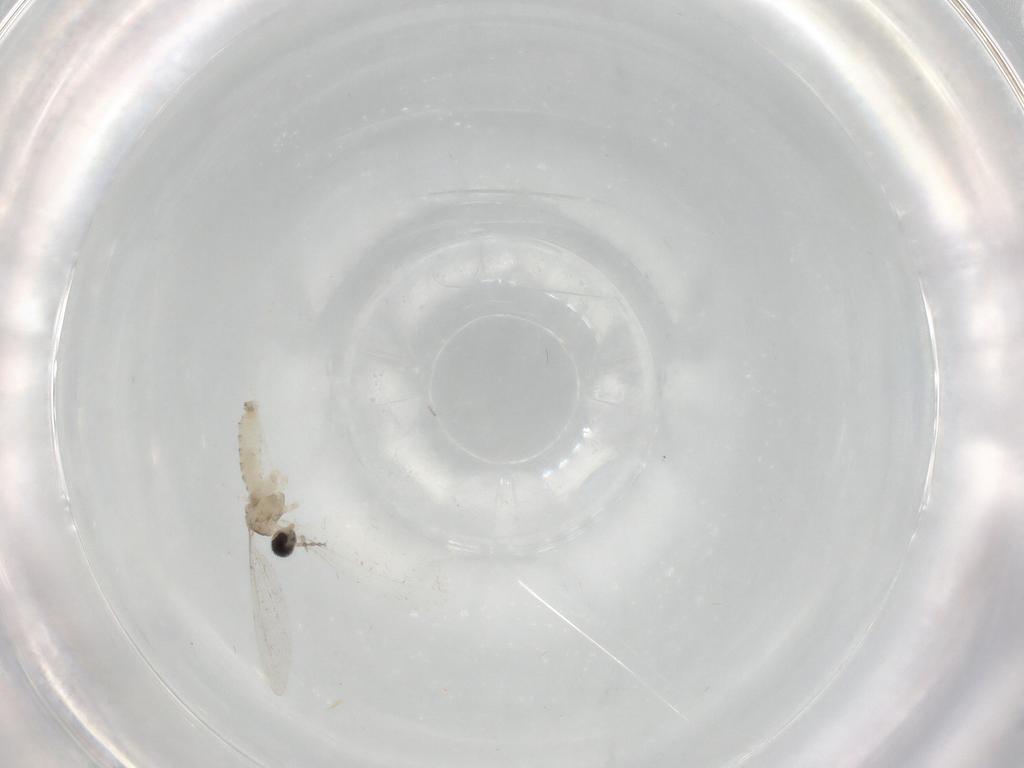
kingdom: Animalia
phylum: Arthropoda
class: Insecta
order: Diptera
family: Cecidomyiidae
